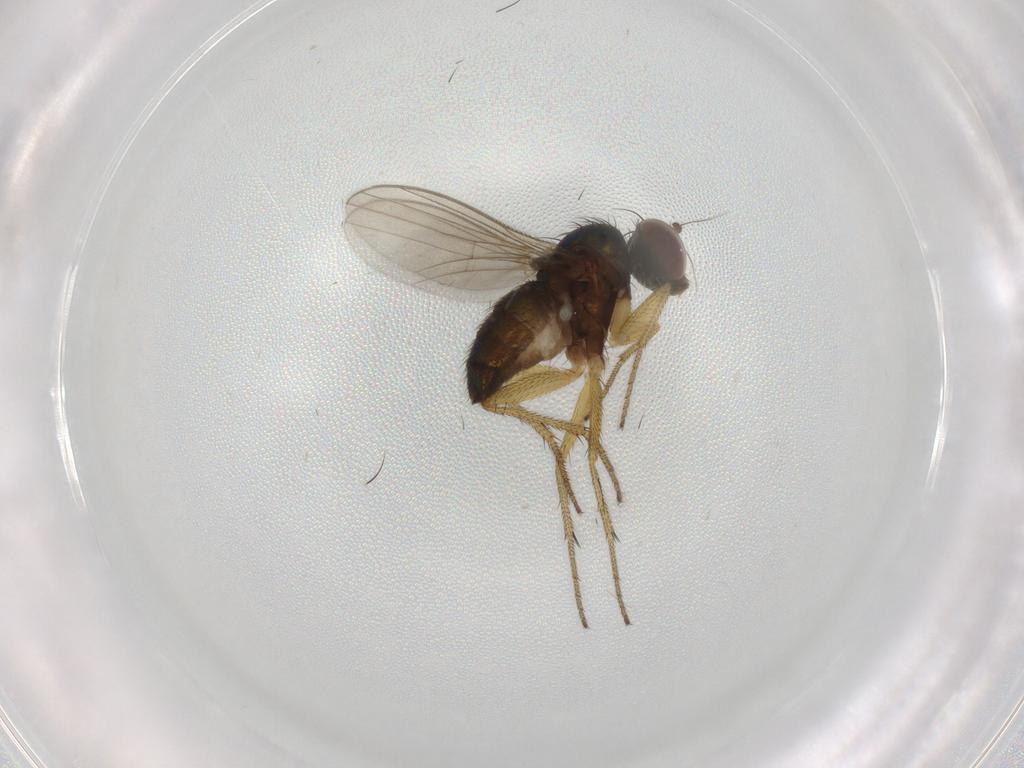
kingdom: Animalia
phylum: Arthropoda
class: Insecta
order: Diptera
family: Dolichopodidae
